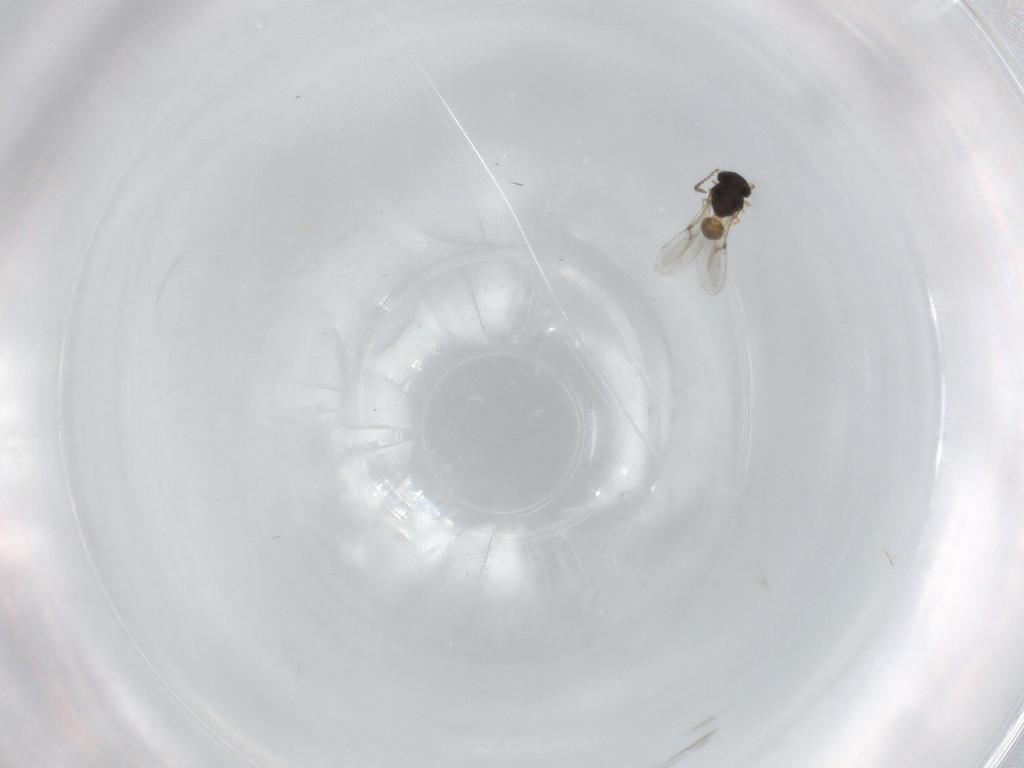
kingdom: Animalia
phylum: Arthropoda
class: Insecta
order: Hymenoptera
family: Scelionidae
